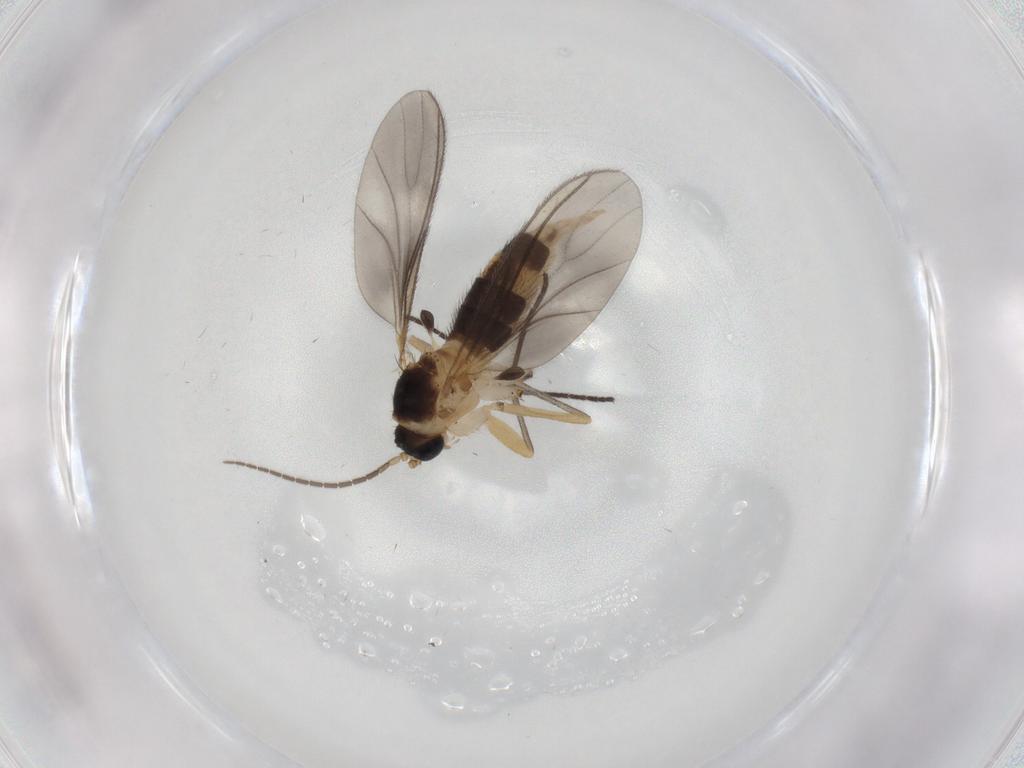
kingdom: Animalia
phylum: Arthropoda
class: Insecta
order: Diptera
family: Sciaridae
